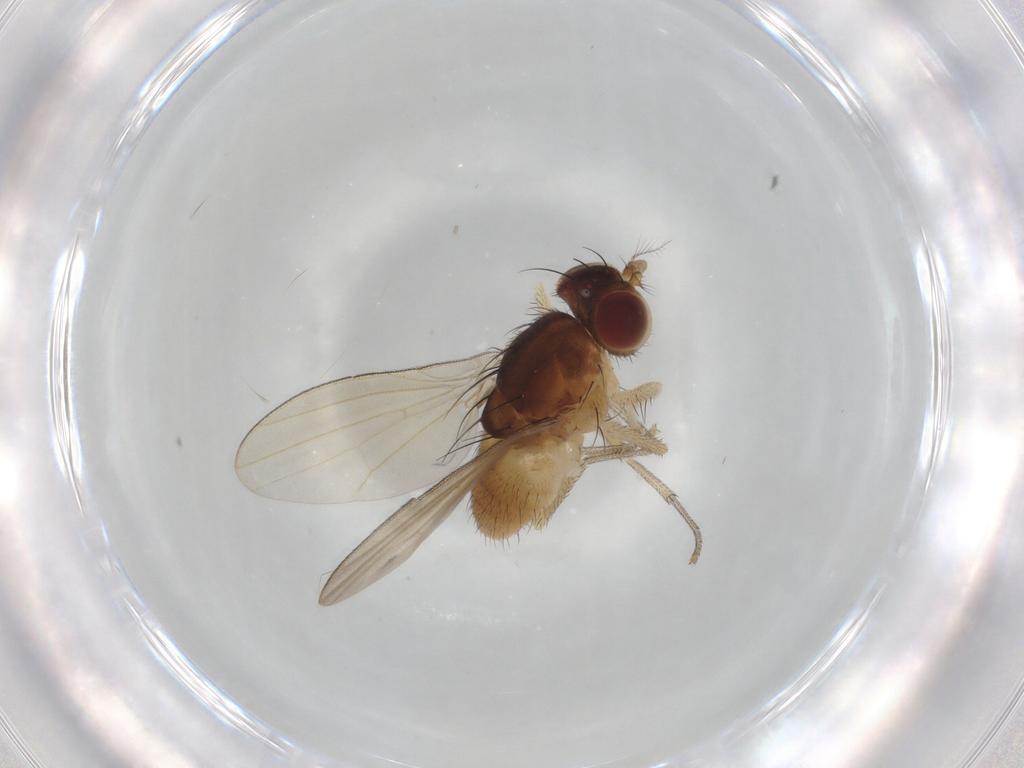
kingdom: Animalia
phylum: Arthropoda
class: Insecta
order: Diptera
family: Lauxaniidae
